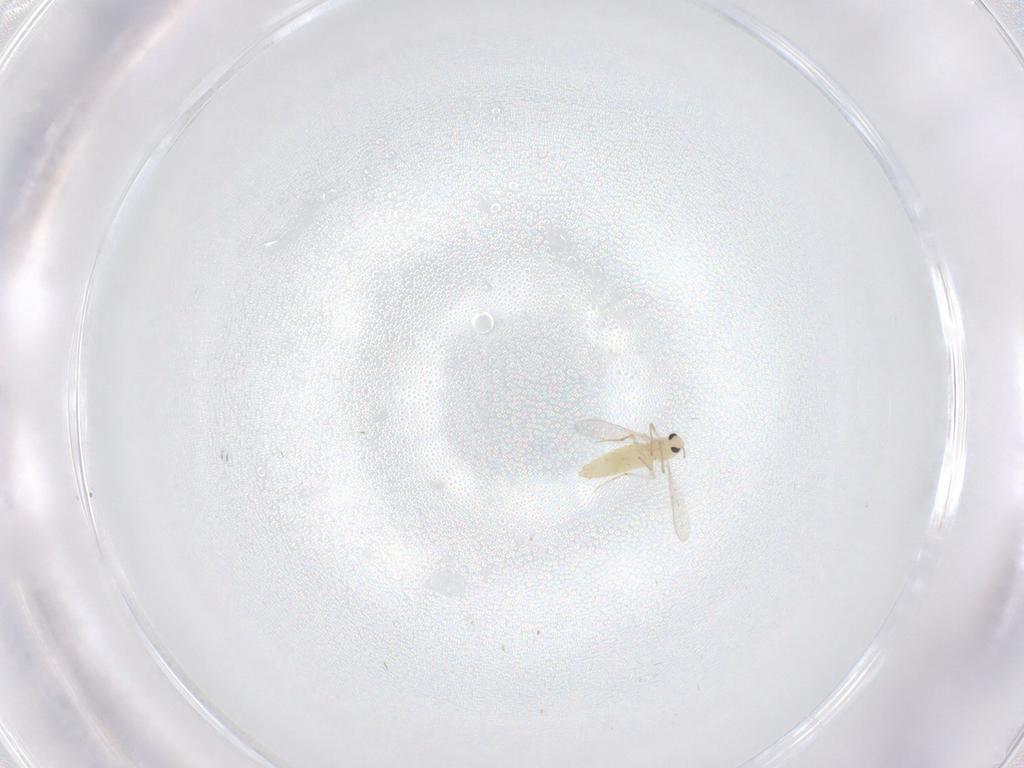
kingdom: Animalia
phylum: Arthropoda
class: Insecta
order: Diptera
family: Chironomidae
